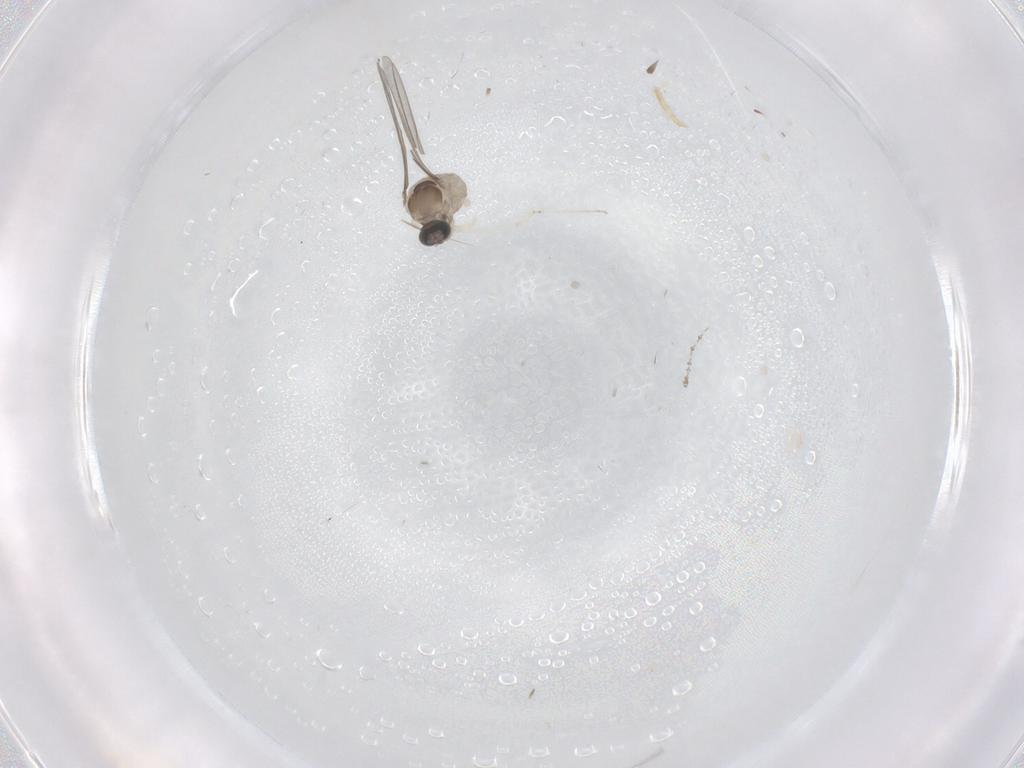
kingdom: Animalia
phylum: Arthropoda
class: Insecta
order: Diptera
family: Cecidomyiidae
